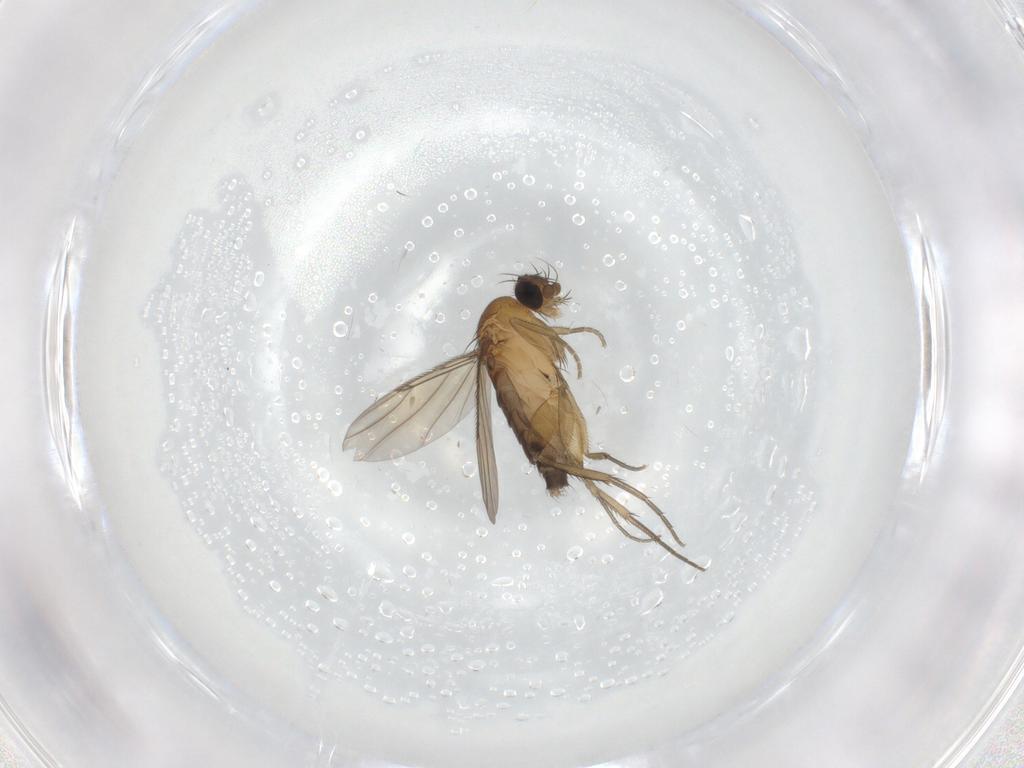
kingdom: Animalia
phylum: Arthropoda
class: Insecta
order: Diptera
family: Phoridae
